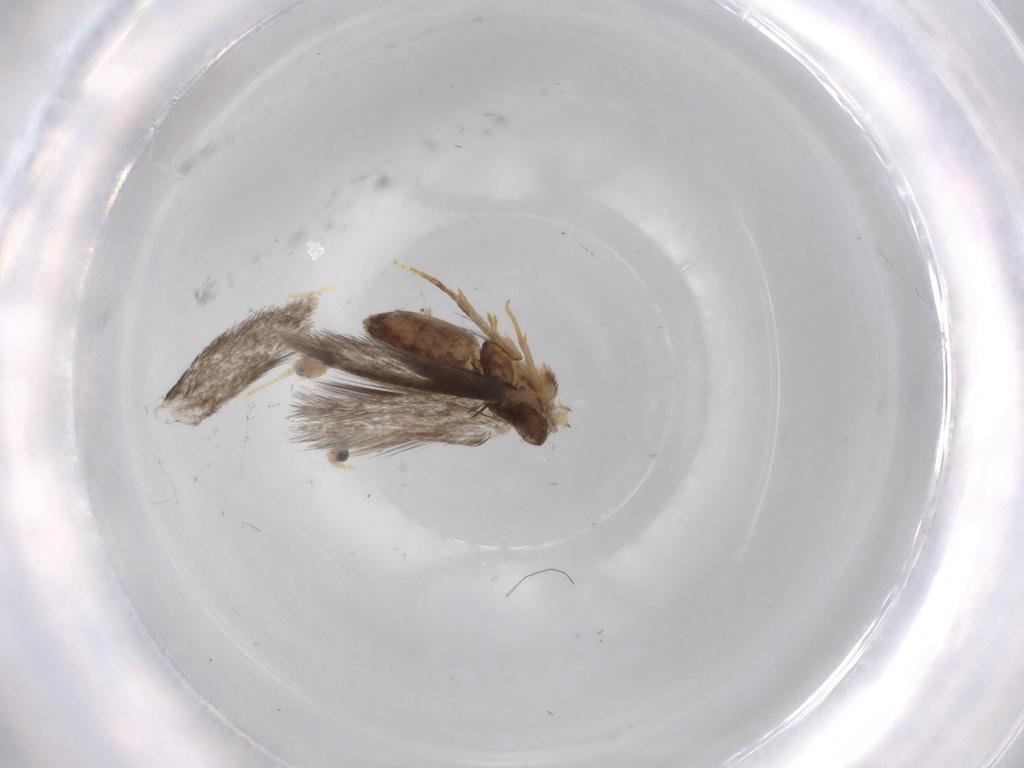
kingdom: Animalia
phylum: Arthropoda
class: Insecta
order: Lepidoptera
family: Nepticulidae
